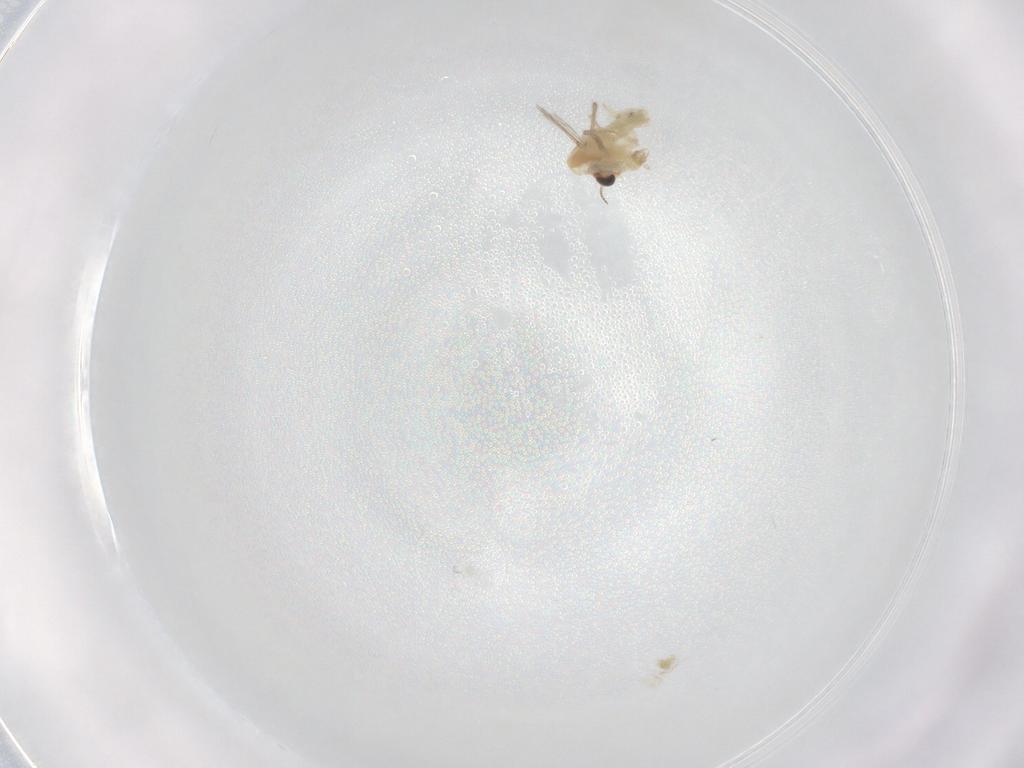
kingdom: Animalia
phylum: Arthropoda
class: Insecta
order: Diptera
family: Chironomidae
